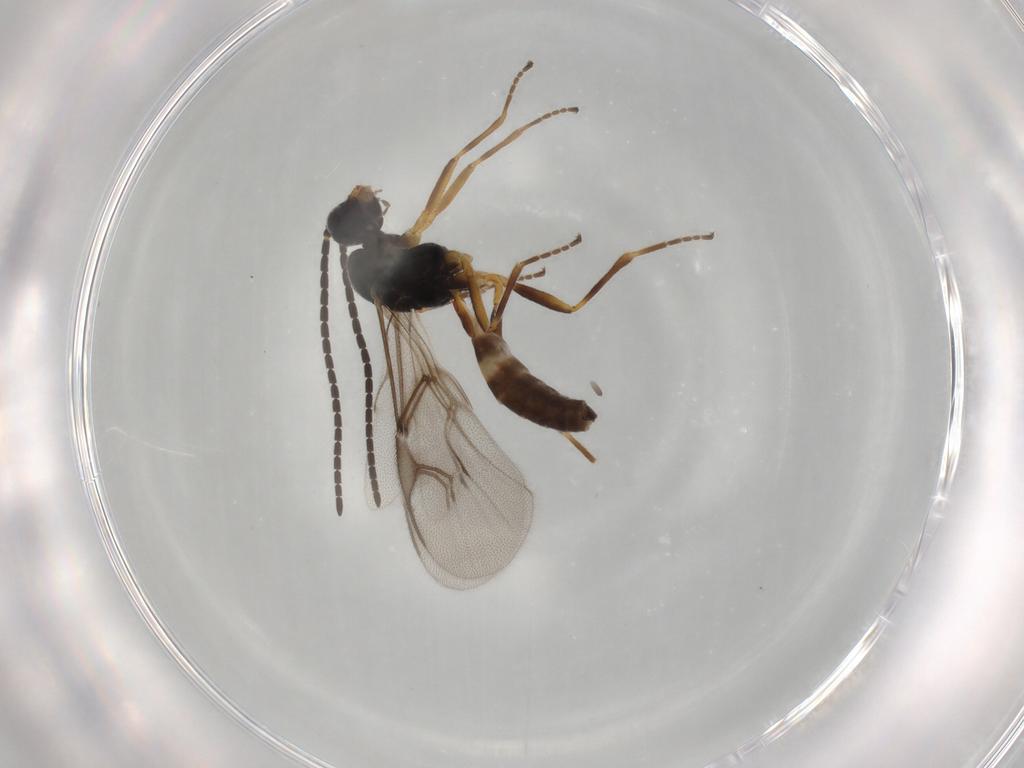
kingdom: Animalia
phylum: Arthropoda
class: Insecta
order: Hymenoptera
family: Braconidae
